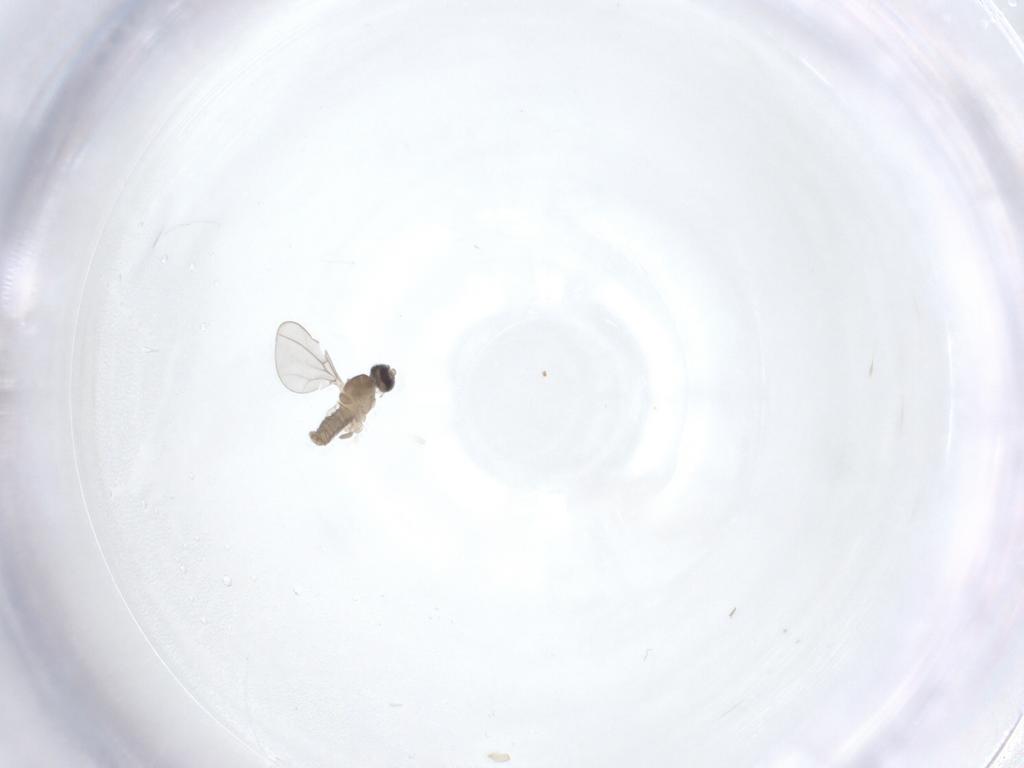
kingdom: Animalia
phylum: Arthropoda
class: Insecta
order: Diptera
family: Cecidomyiidae
